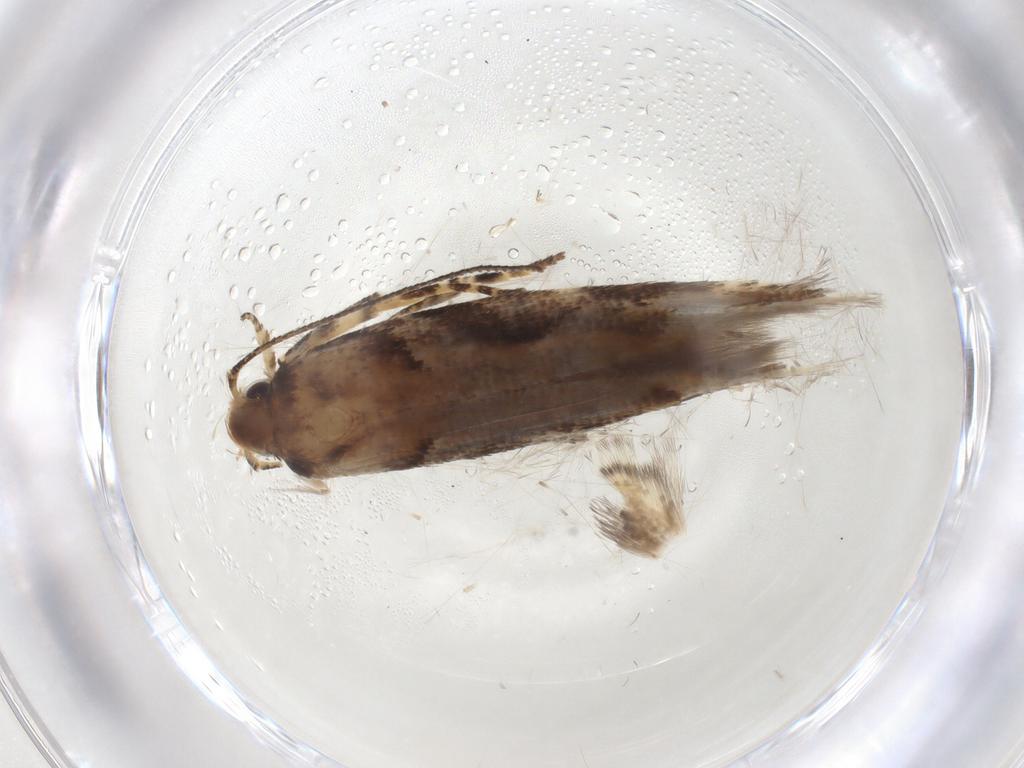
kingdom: Animalia
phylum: Arthropoda
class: Insecta
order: Lepidoptera
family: Gelechiidae
